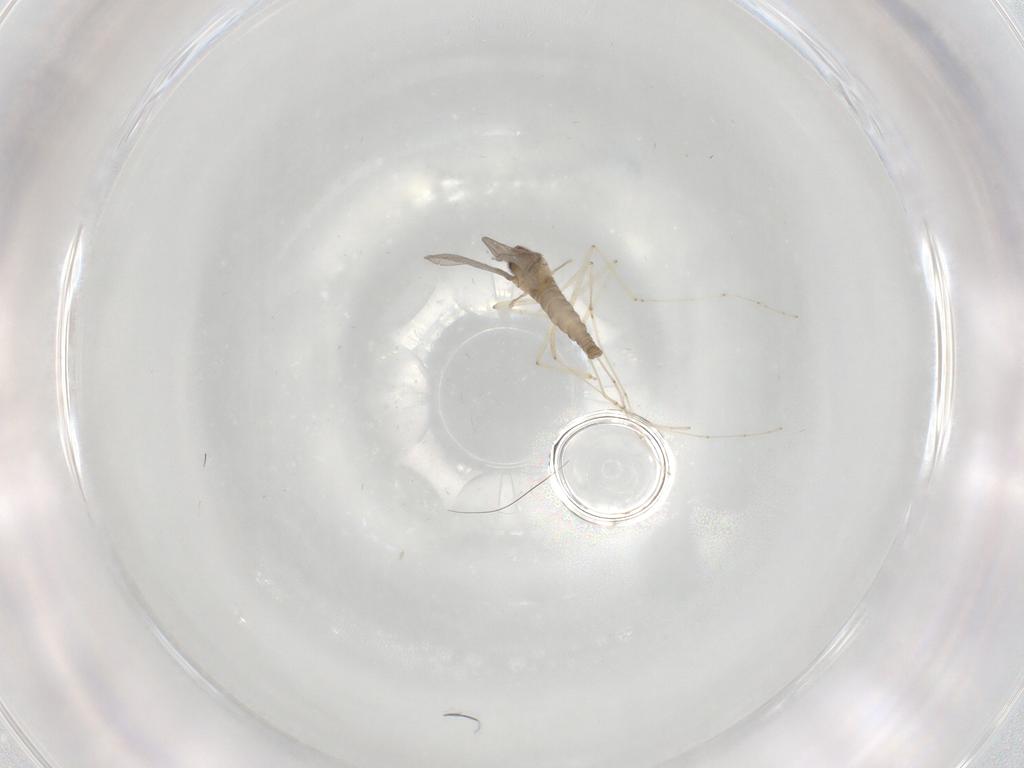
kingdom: Animalia
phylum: Arthropoda
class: Insecta
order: Diptera
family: Cecidomyiidae
